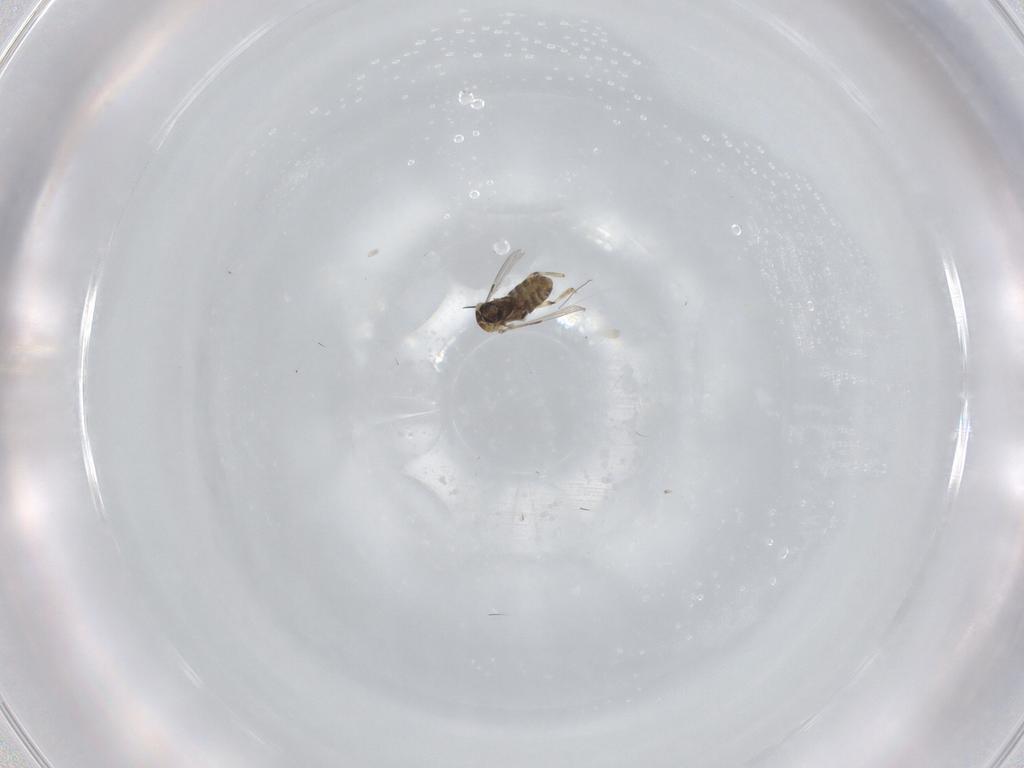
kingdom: Animalia
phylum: Arthropoda
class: Insecta
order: Diptera
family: Ceratopogonidae
